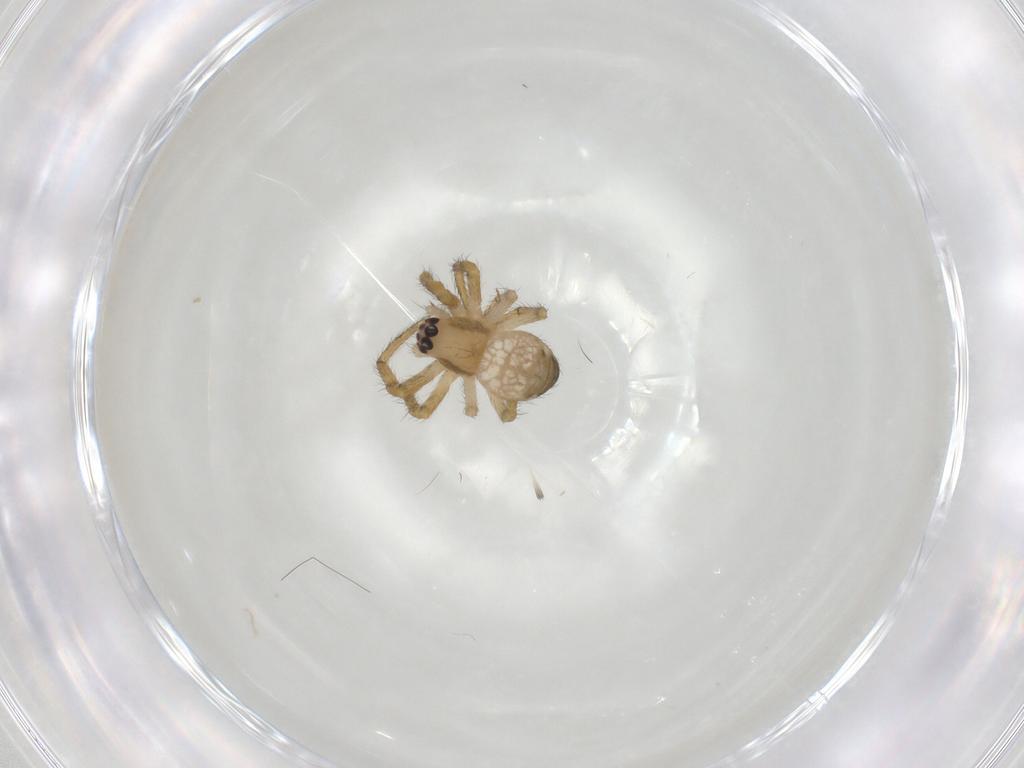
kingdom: Animalia
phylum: Arthropoda
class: Arachnida
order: Araneae
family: Araneidae
